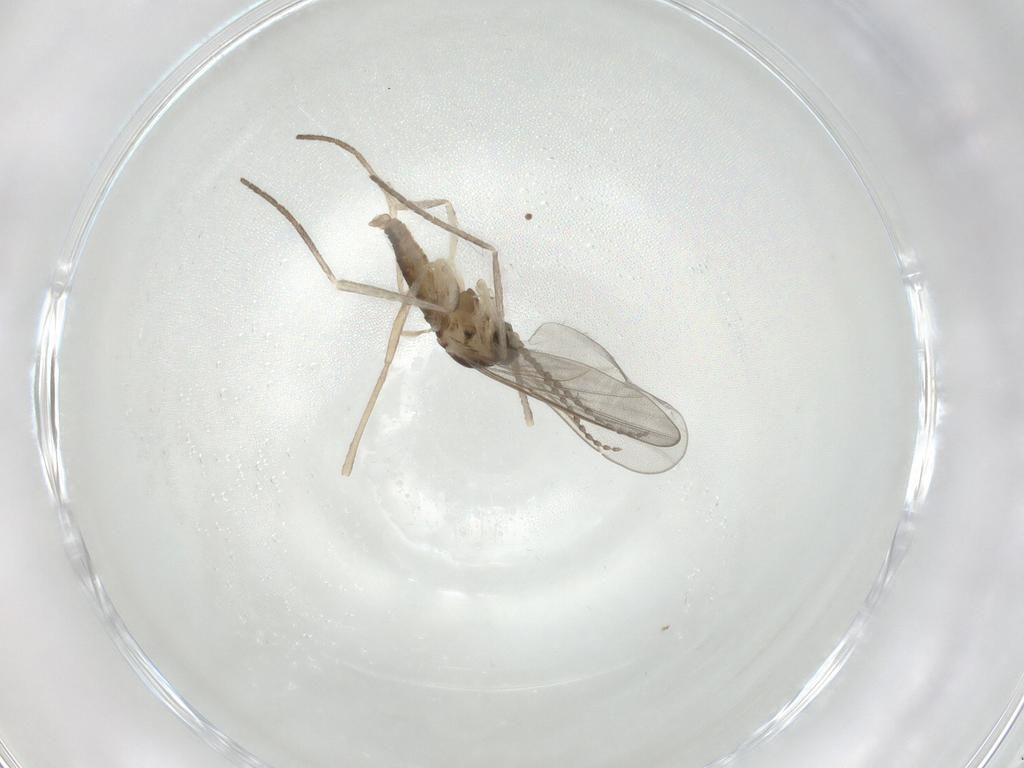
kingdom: Animalia
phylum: Arthropoda
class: Insecta
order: Diptera
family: Cecidomyiidae
